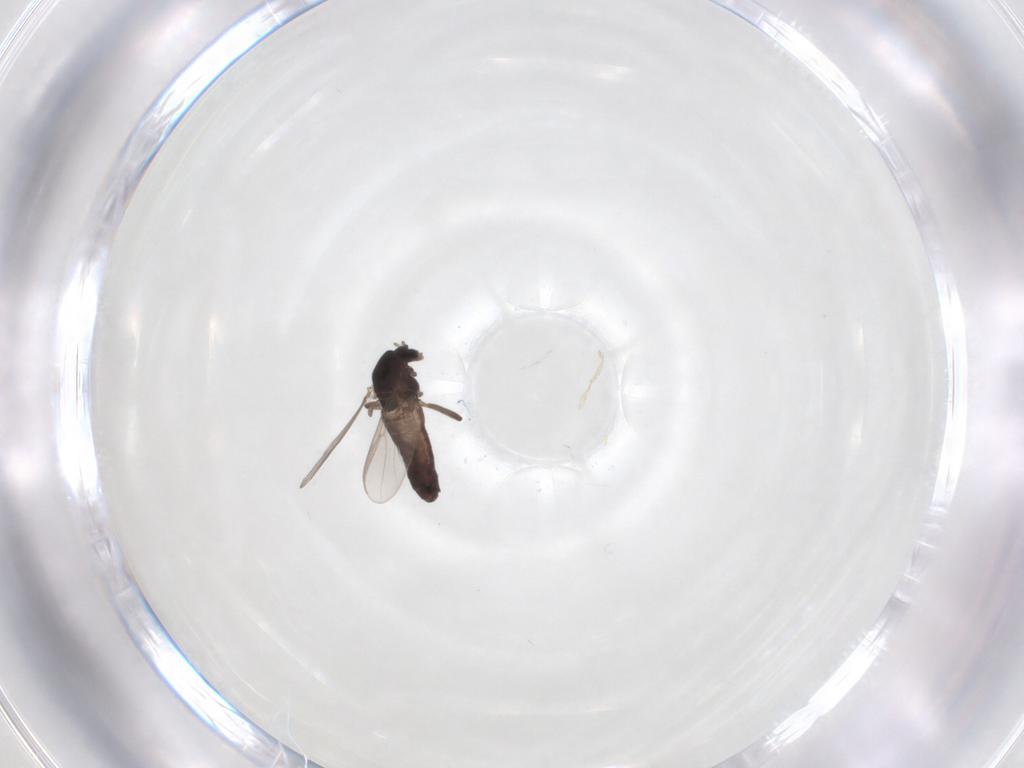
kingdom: Animalia
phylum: Arthropoda
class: Insecta
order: Diptera
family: Chironomidae
